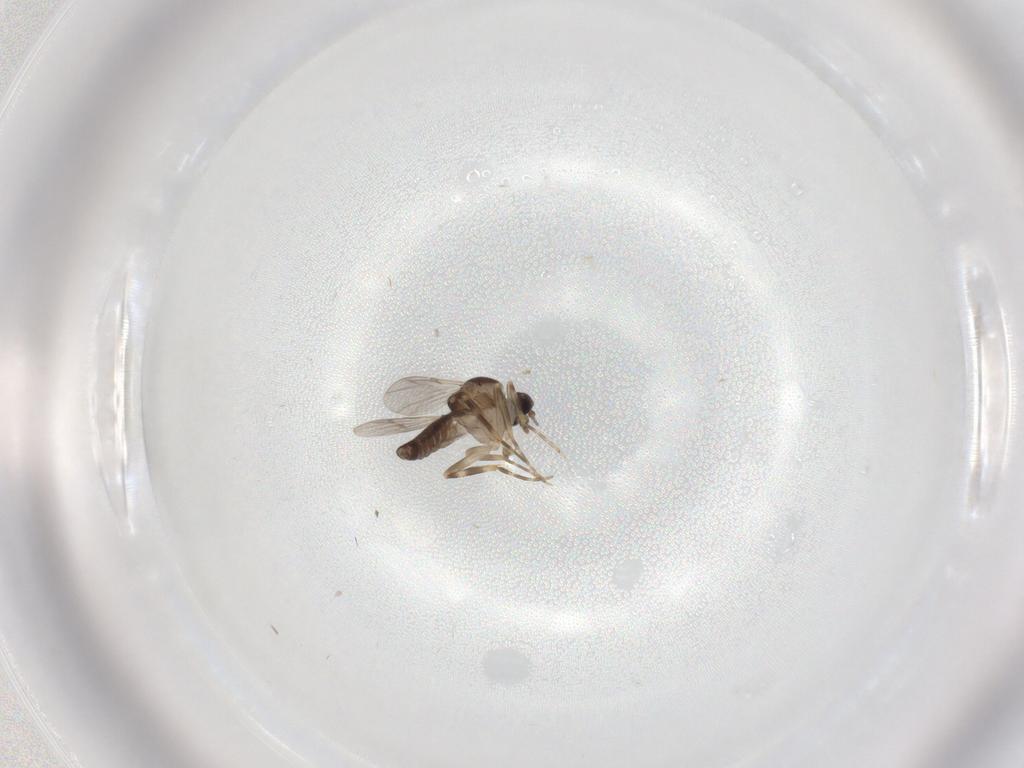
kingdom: Animalia
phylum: Arthropoda
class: Insecta
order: Diptera
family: Ceratopogonidae
